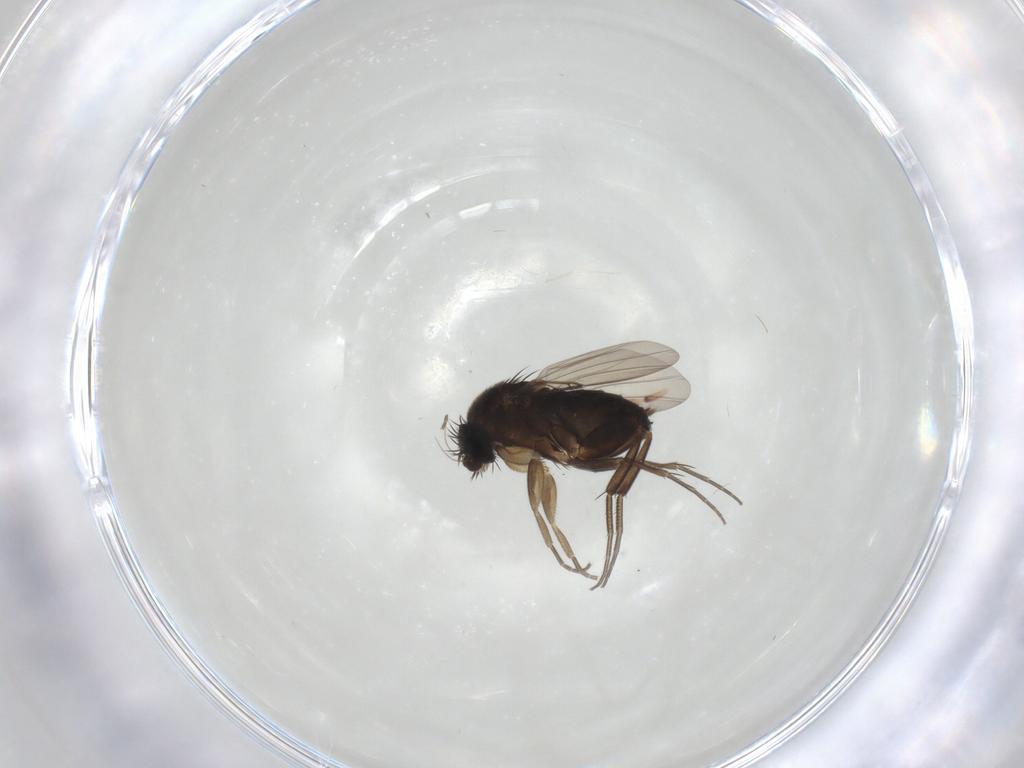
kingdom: Animalia
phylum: Arthropoda
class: Insecta
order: Diptera
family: Phoridae
